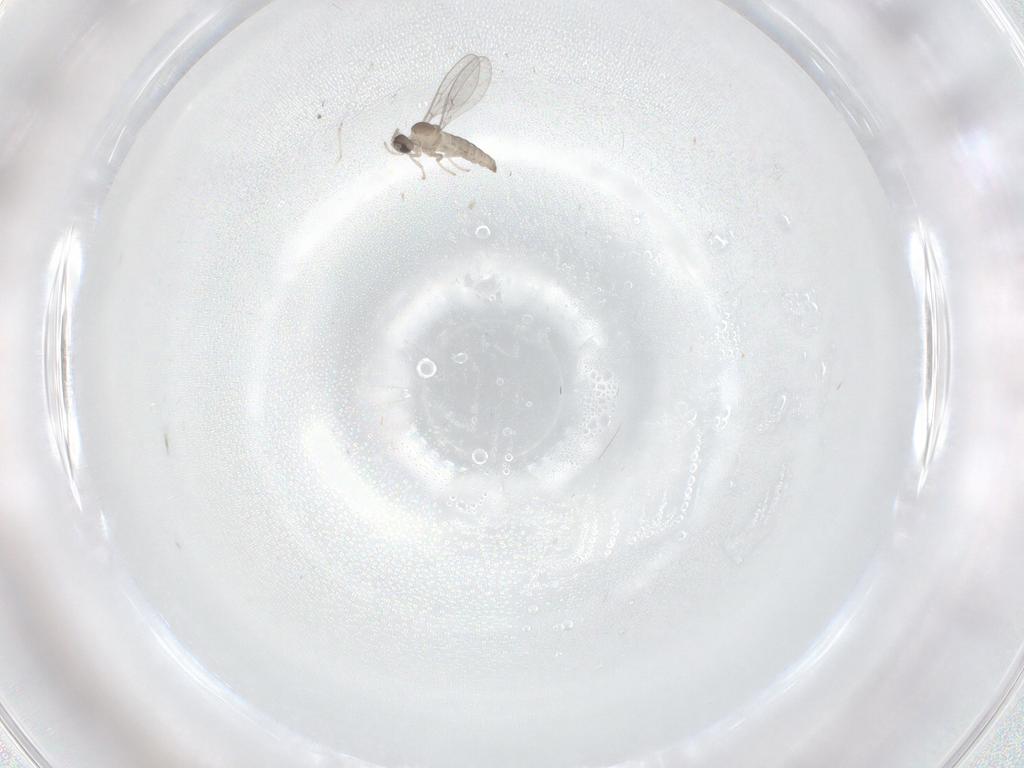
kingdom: Animalia
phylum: Arthropoda
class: Insecta
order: Diptera
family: Cecidomyiidae
